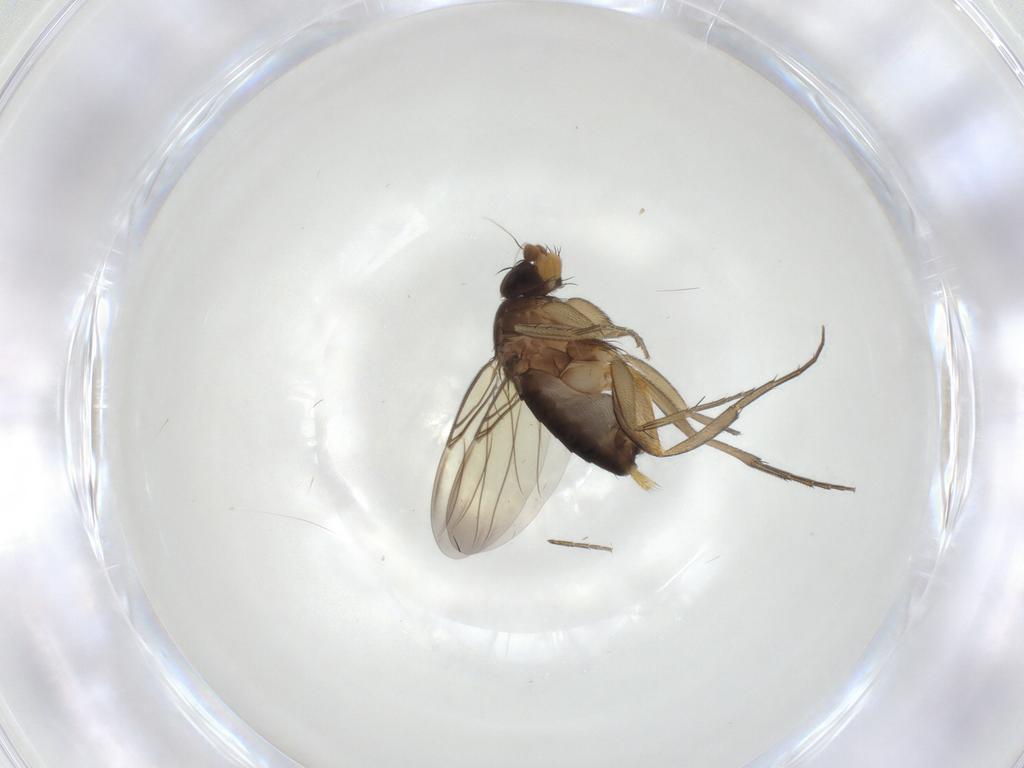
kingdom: Animalia
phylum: Arthropoda
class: Insecta
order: Diptera
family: Phoridae
